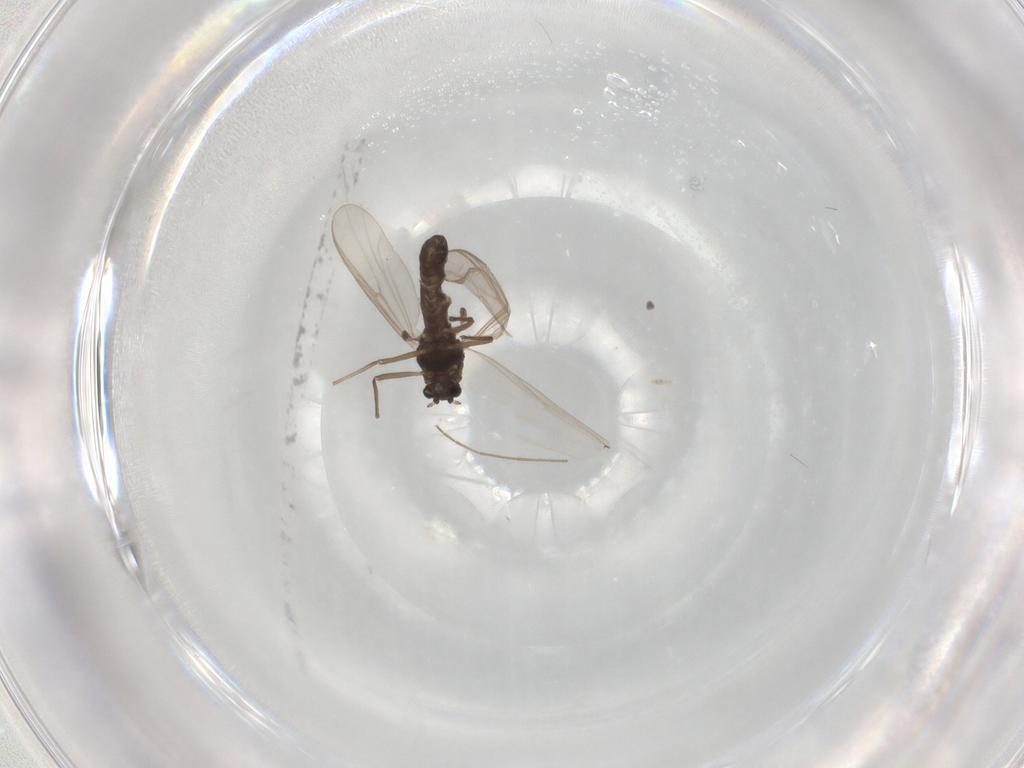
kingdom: Animalia
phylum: Arthropoda
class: Insecta
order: Diptera
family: Chironomidae
